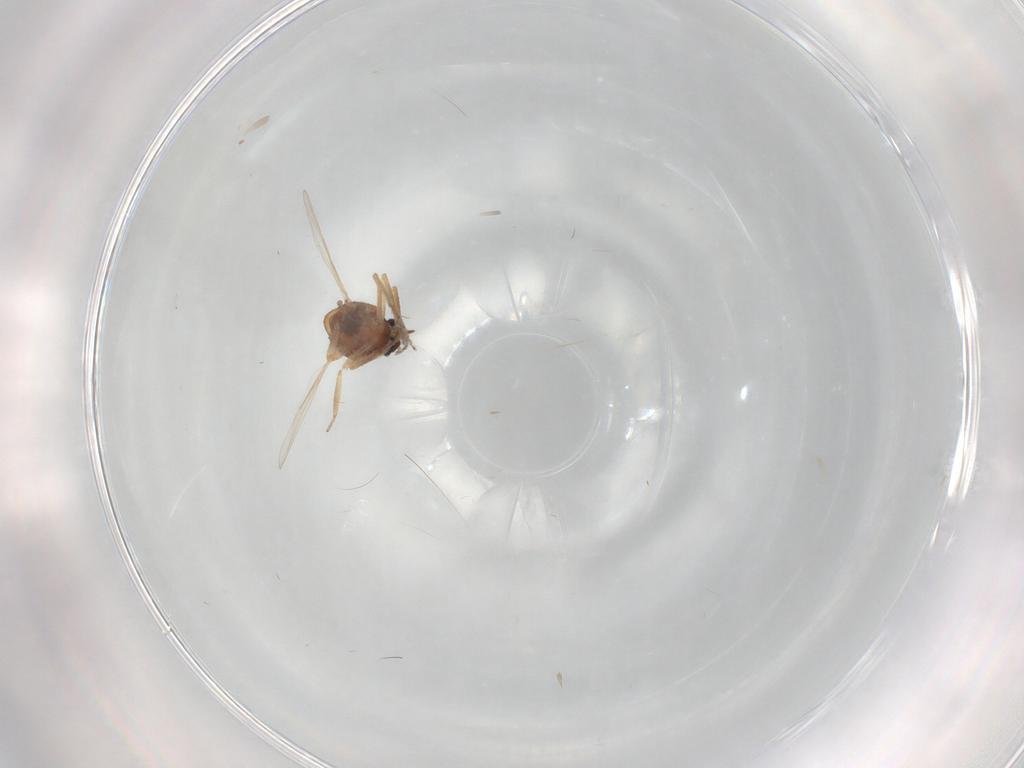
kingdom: Animalia
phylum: Arthropoda
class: Insecta
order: Diptera
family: Ceratopogonidae
